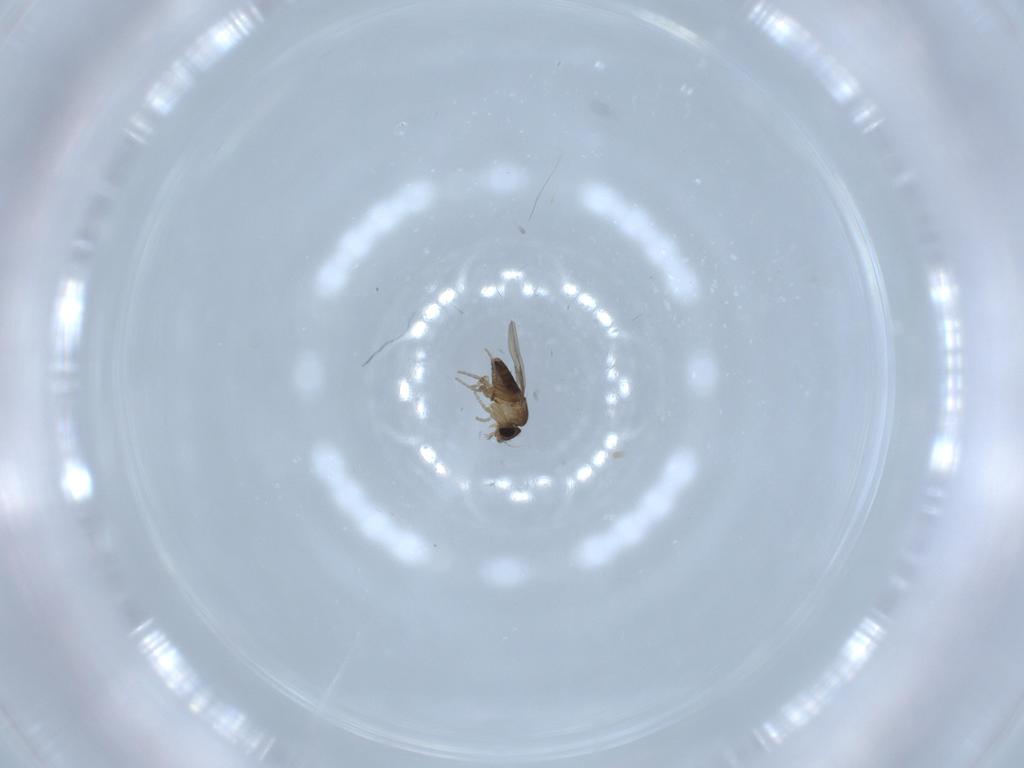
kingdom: Animalia
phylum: Arthropoda
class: Insecta
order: Diptera
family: Phoridae
